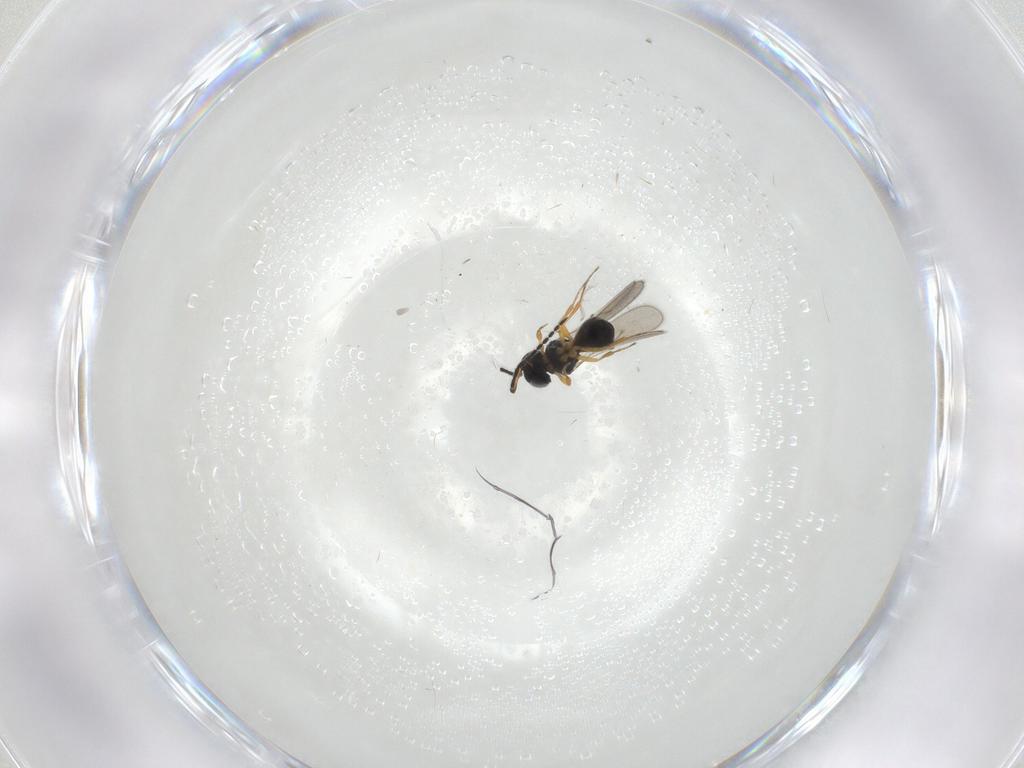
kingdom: Animalia
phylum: Arthropoda
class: Insecta
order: Hymenoptera
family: Scelionidae
